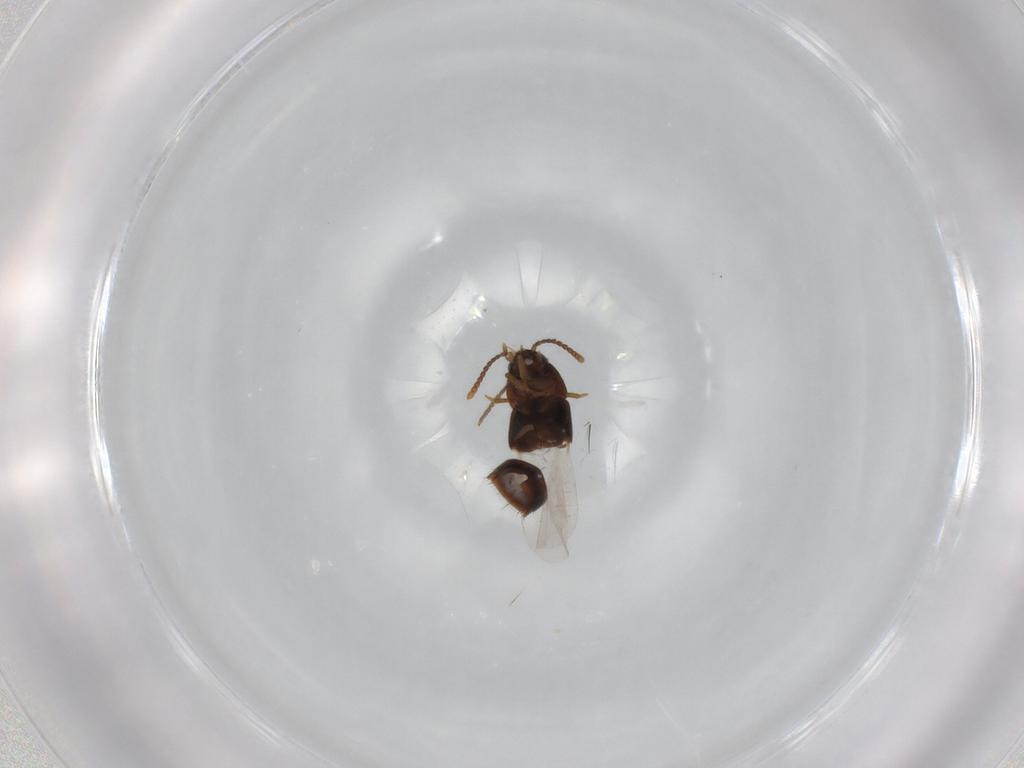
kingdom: Animalia
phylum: Arthropoda
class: Insecta
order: Coleoptera
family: Staphylinidae
